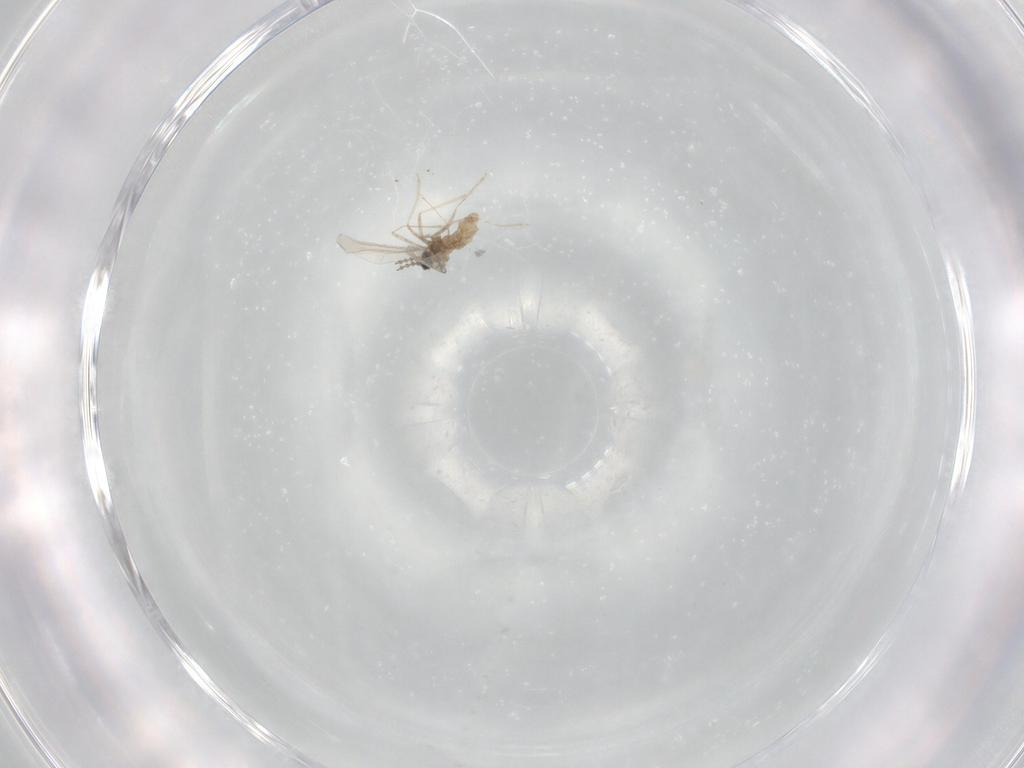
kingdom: Animalia
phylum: Arthropoda
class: Insecta
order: Diptera
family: Cecidomyiidae
